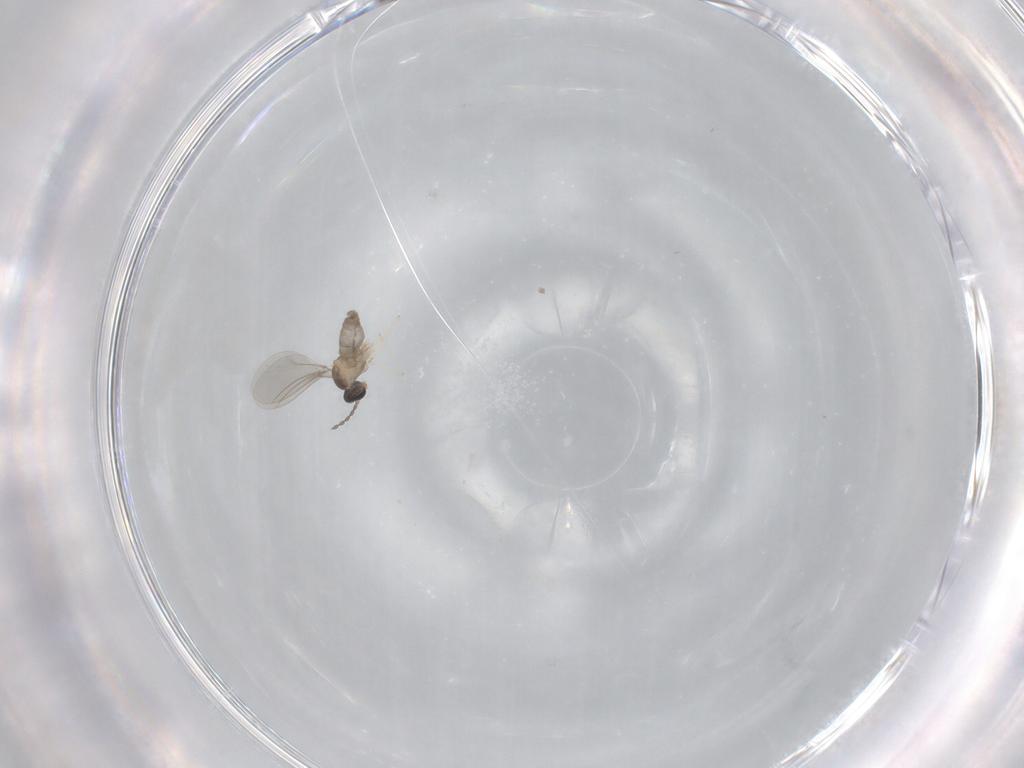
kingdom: Animalia
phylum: Arthropoda
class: Insecta
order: Diptera
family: Cecidomyiidae
